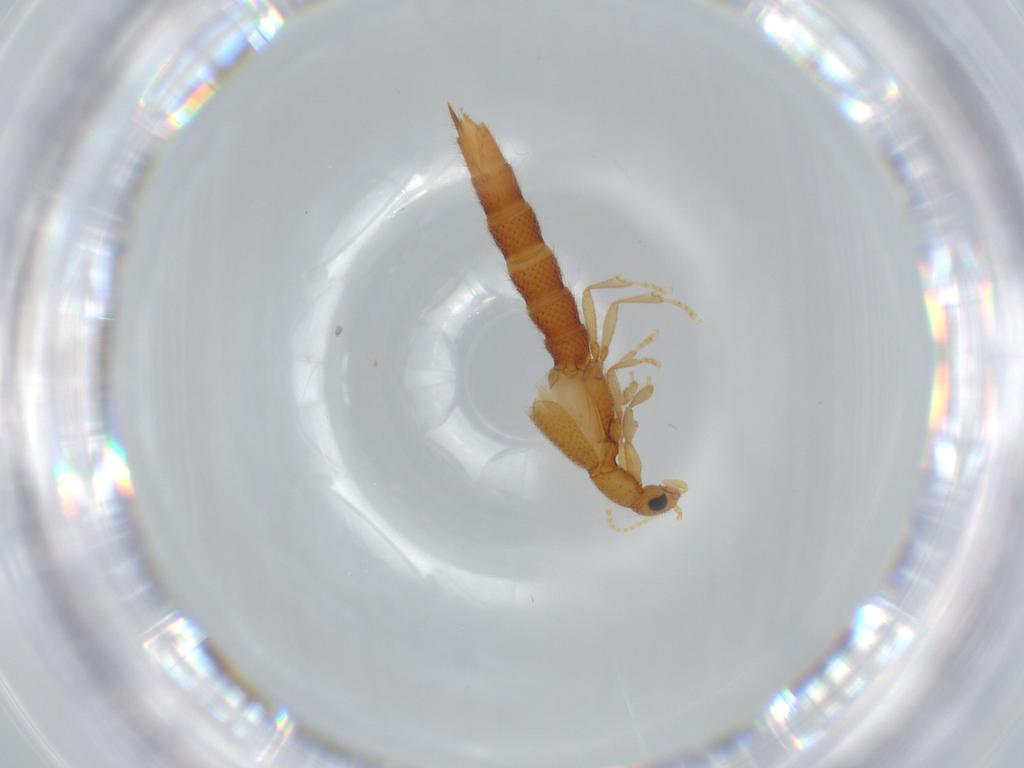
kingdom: Animalia
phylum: Arthropoda
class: Insecta
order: Coleoptera
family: Staphylinidae
